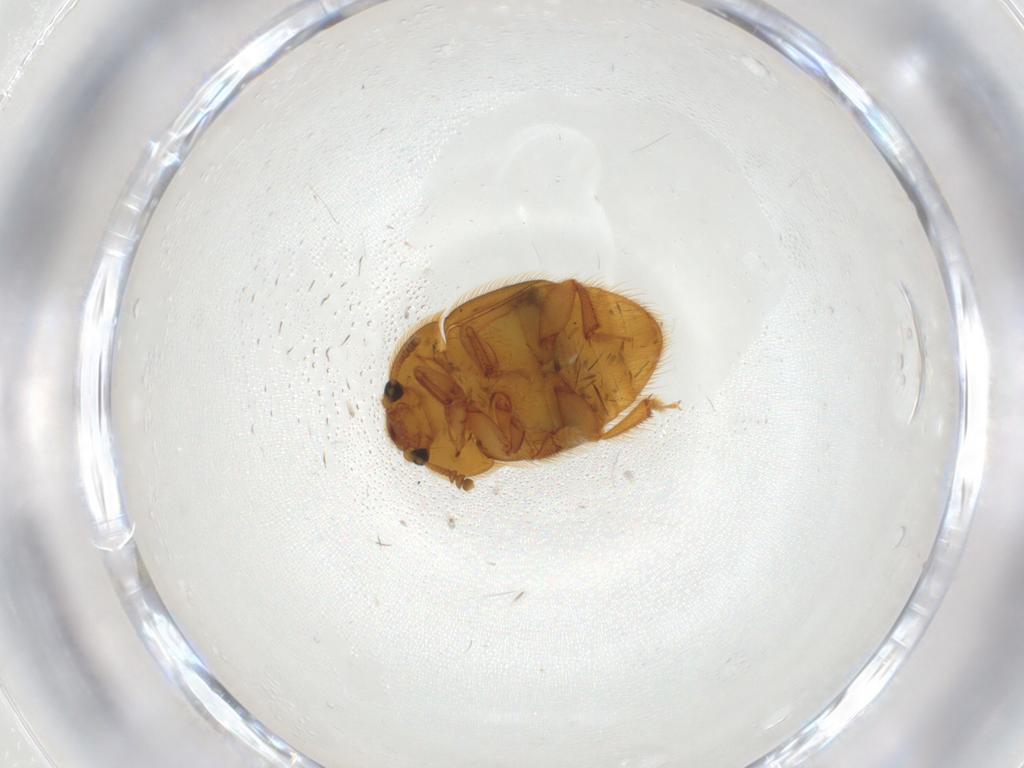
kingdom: Animalia
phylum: Arthropoda
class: Insecta
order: Coleoptera
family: Nitidulidae
